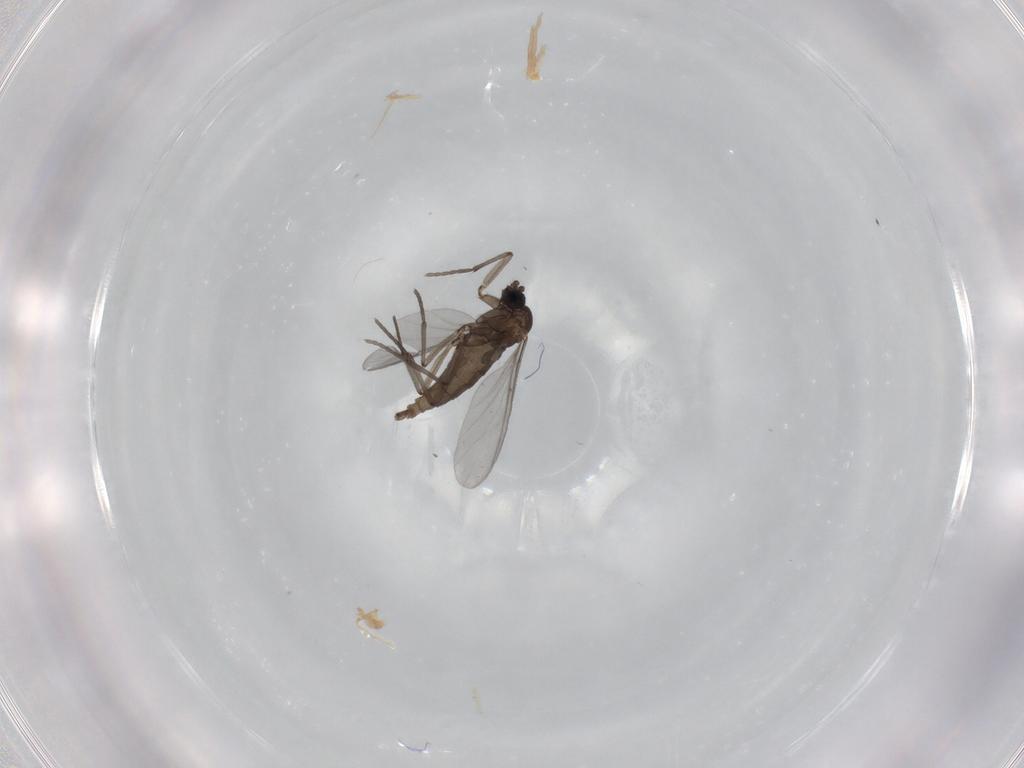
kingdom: Animalia
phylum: Arthropoda
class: Insecta
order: Diptera
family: Sciaridae
